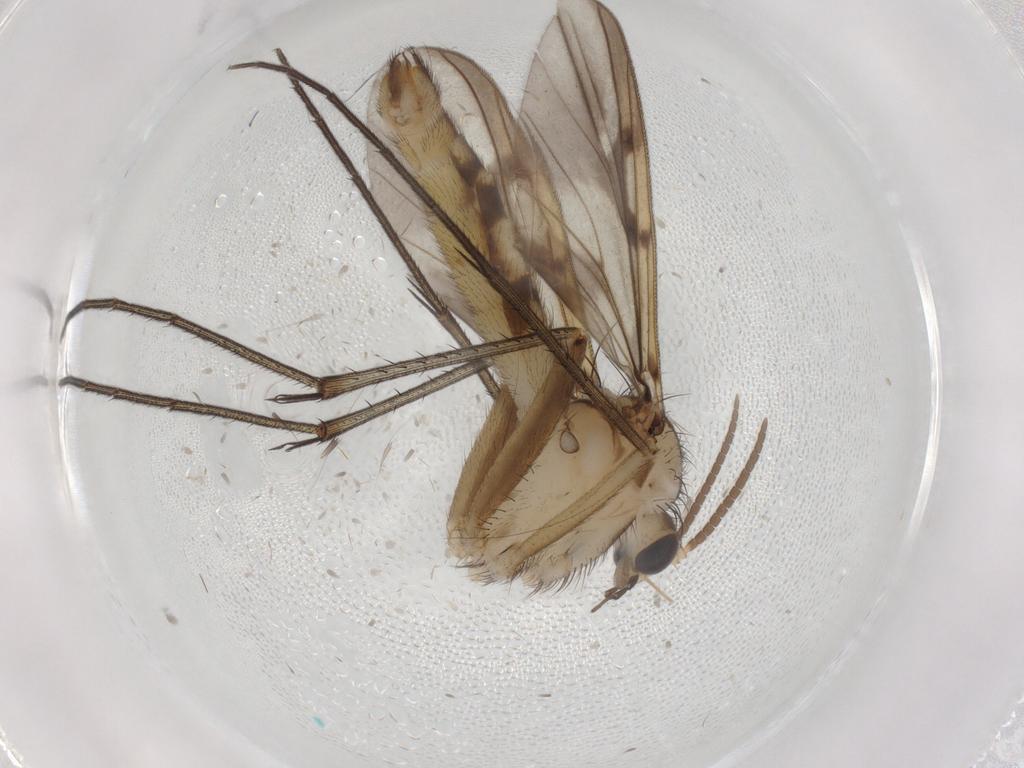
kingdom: Animalia
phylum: Arthropoda
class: Insecta
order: Diptera
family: Mycetophilidae
